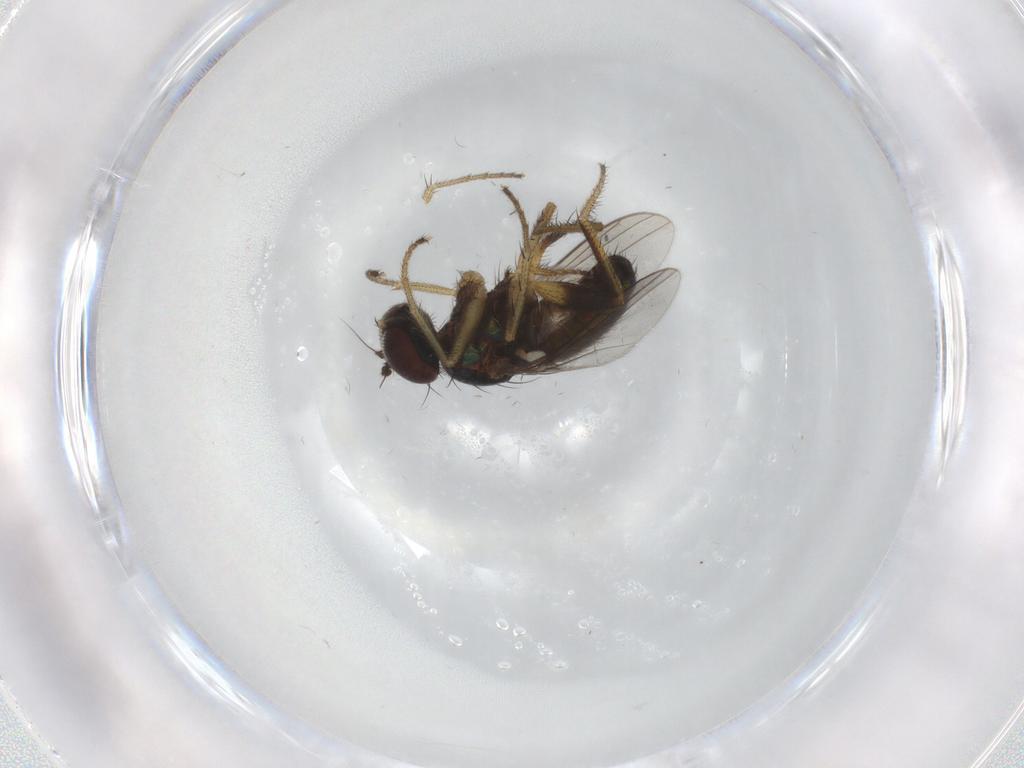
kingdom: Animalia
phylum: Arthropoda
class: Insecta
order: Diptera
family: Dolichopodidae
